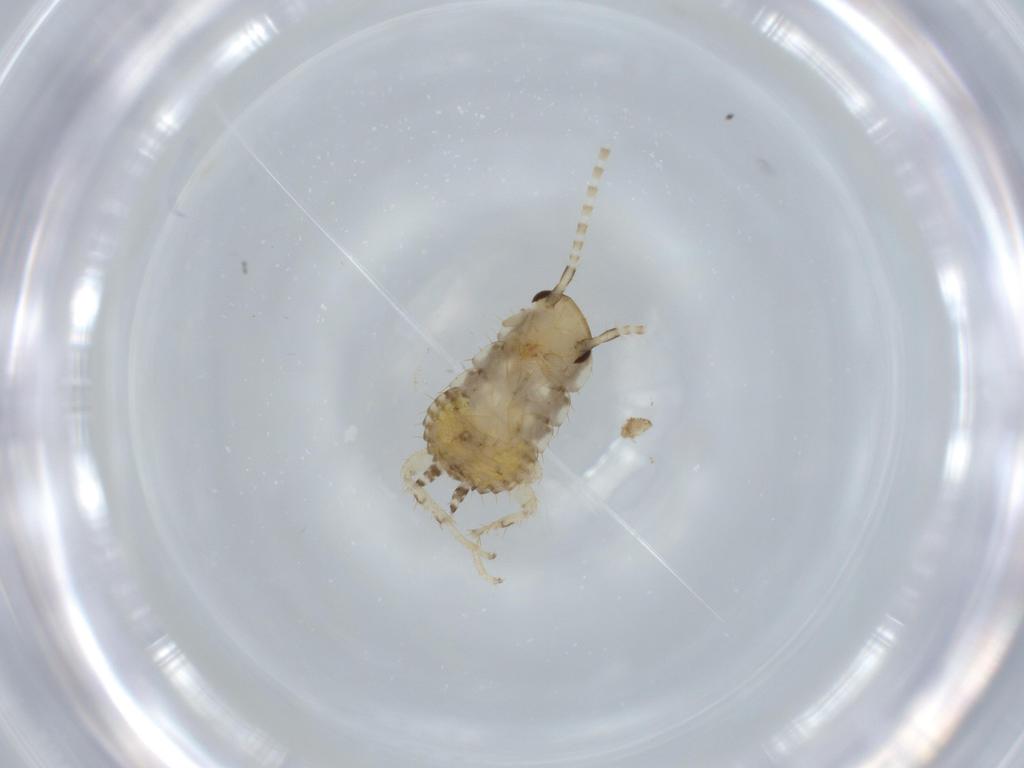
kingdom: Animalia
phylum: Arthropoda
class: Insecta
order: Blattodea
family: Ectobiidae
